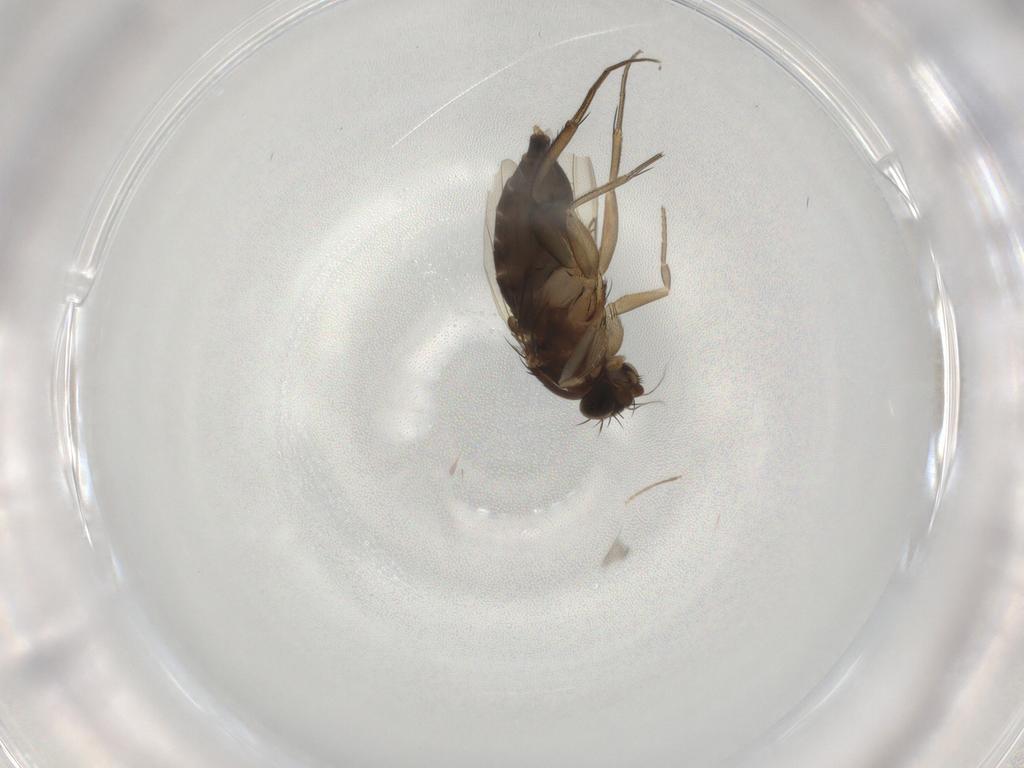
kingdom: Animalia
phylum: Arthropoda
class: Insecta
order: Diptera
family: Phoridae
